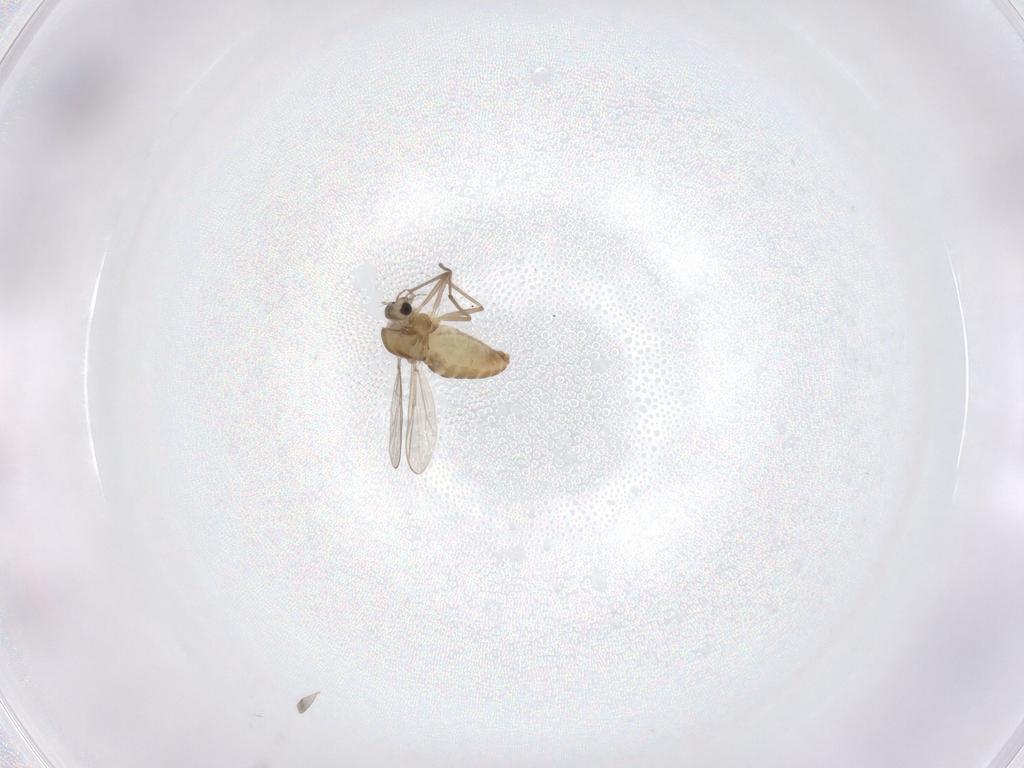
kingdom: Animalia
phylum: Arthropoda
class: Insecta
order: Diptera
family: Chironomidae
